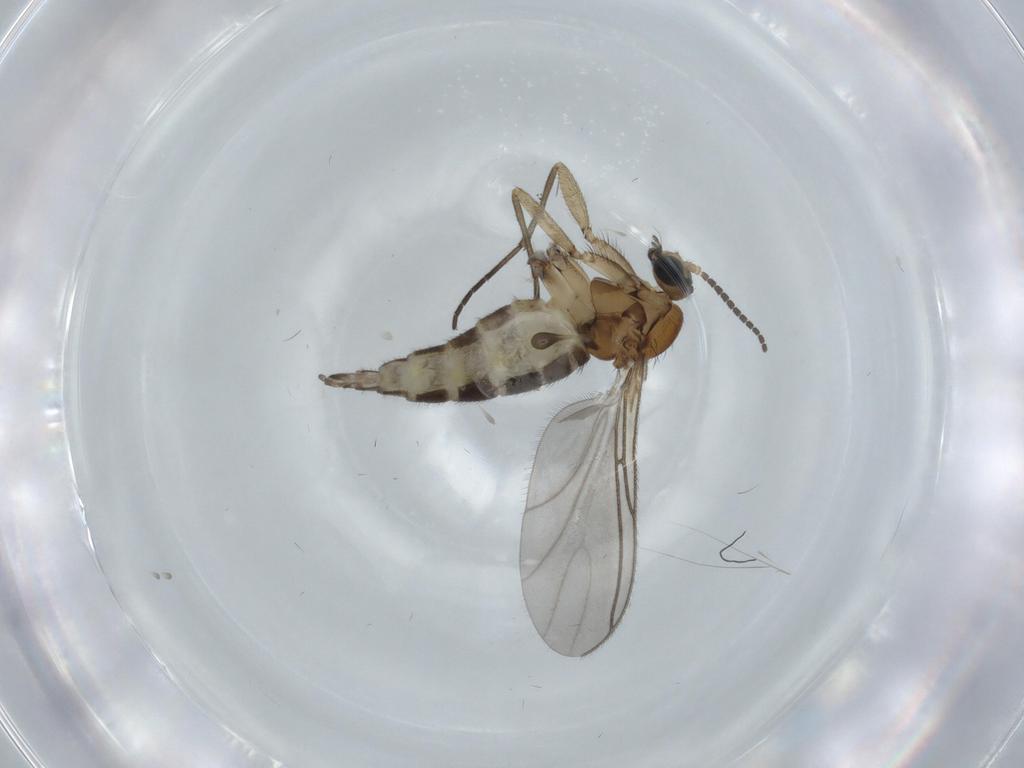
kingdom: Animalia
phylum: Arthropoda
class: Insecta
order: Diptera
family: Sciaridae
